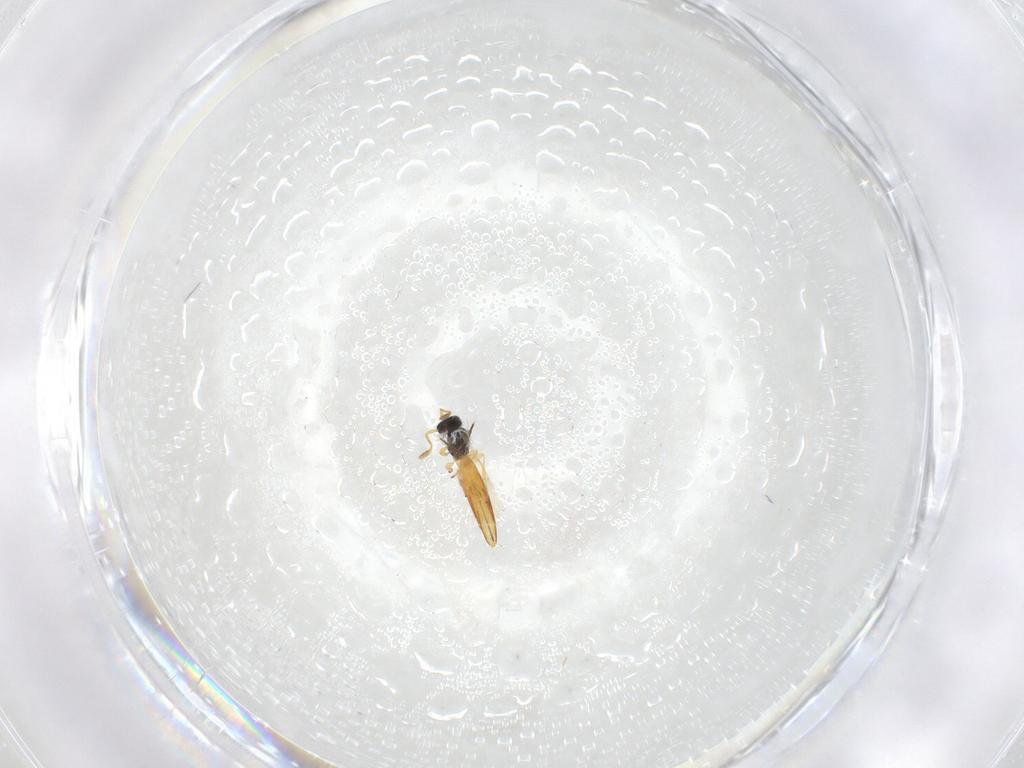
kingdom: Animalia
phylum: Arthropoda
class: Insecta
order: Hymenoptera
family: Scelionidae
